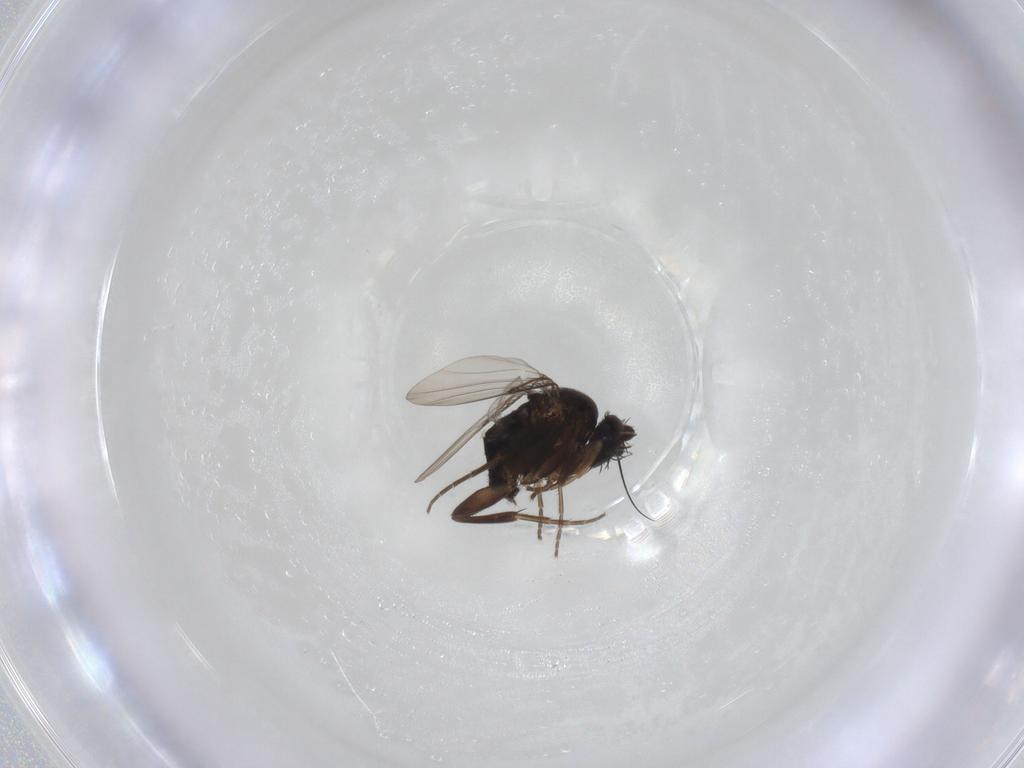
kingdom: Animalia
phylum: Arthropoda
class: Insecta
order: Diptera
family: Phoridae
